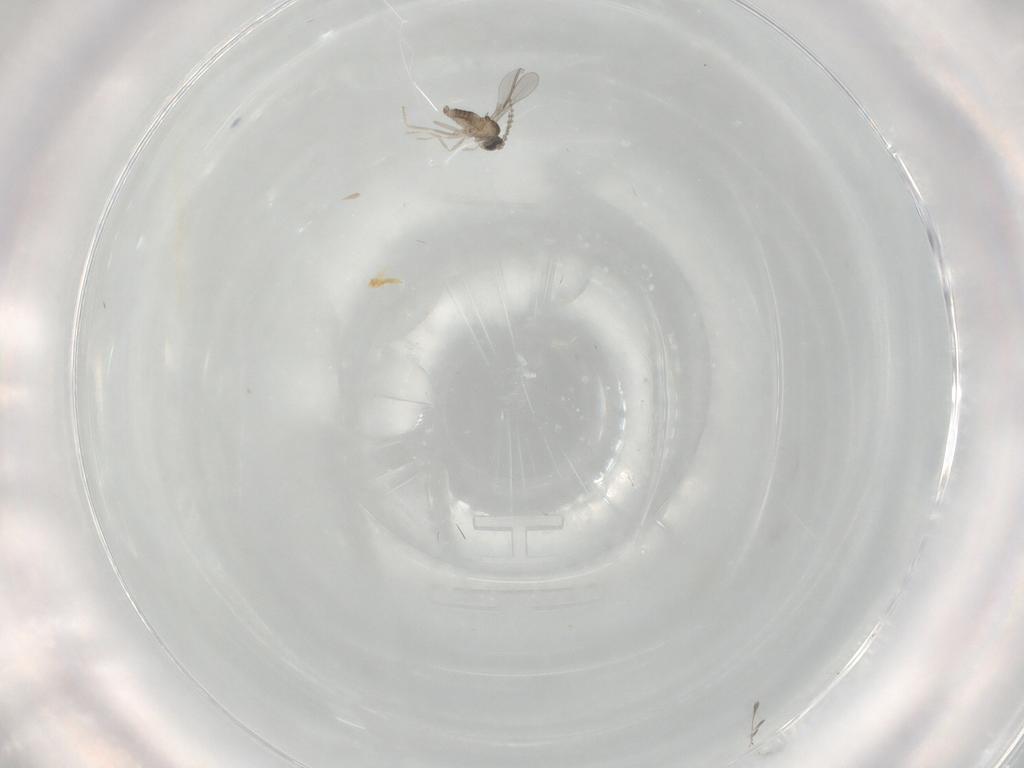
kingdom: Animalia
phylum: Arthropoda
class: Insecta
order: Diptera
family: Cecidomyiidae
